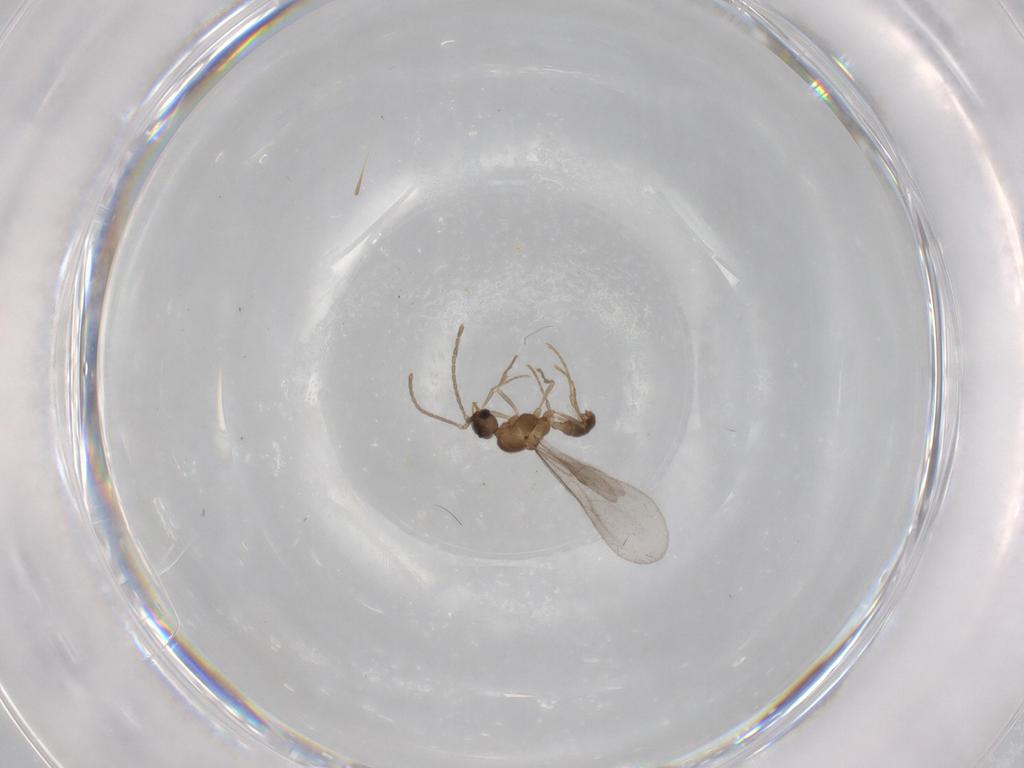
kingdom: Animalia
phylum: Arthropoda
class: Insecta
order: Hymenoptera
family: Formicidae
